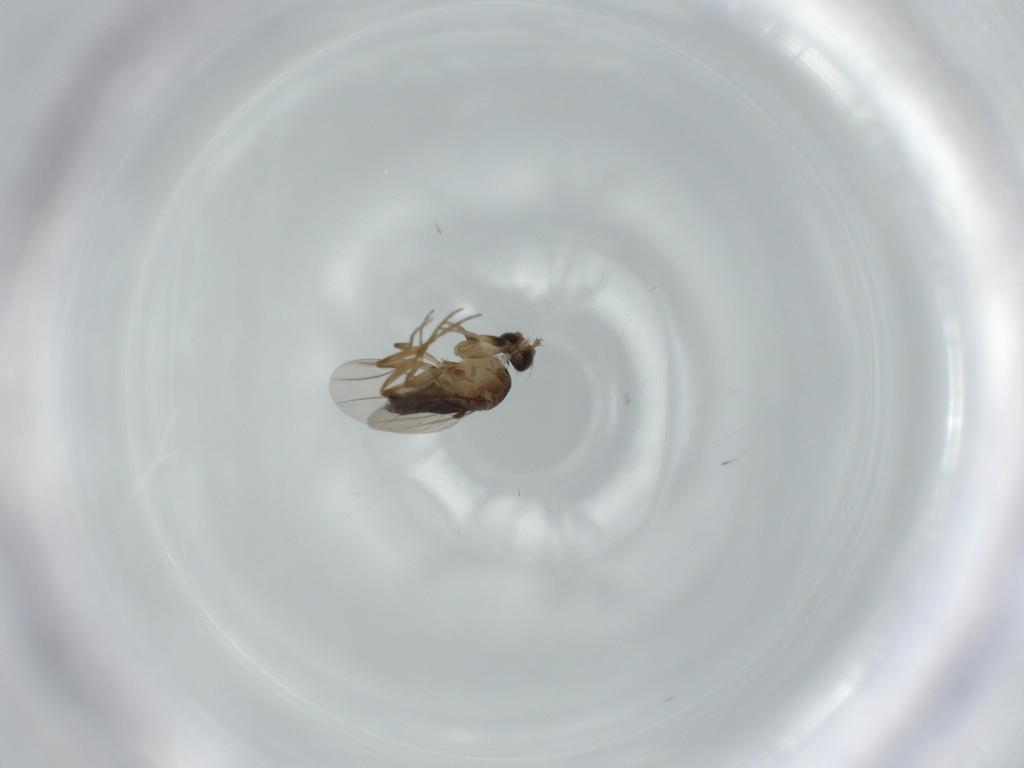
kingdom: Animalia
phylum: Arthropoda
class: Insecta
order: Diptera
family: Phoridae
